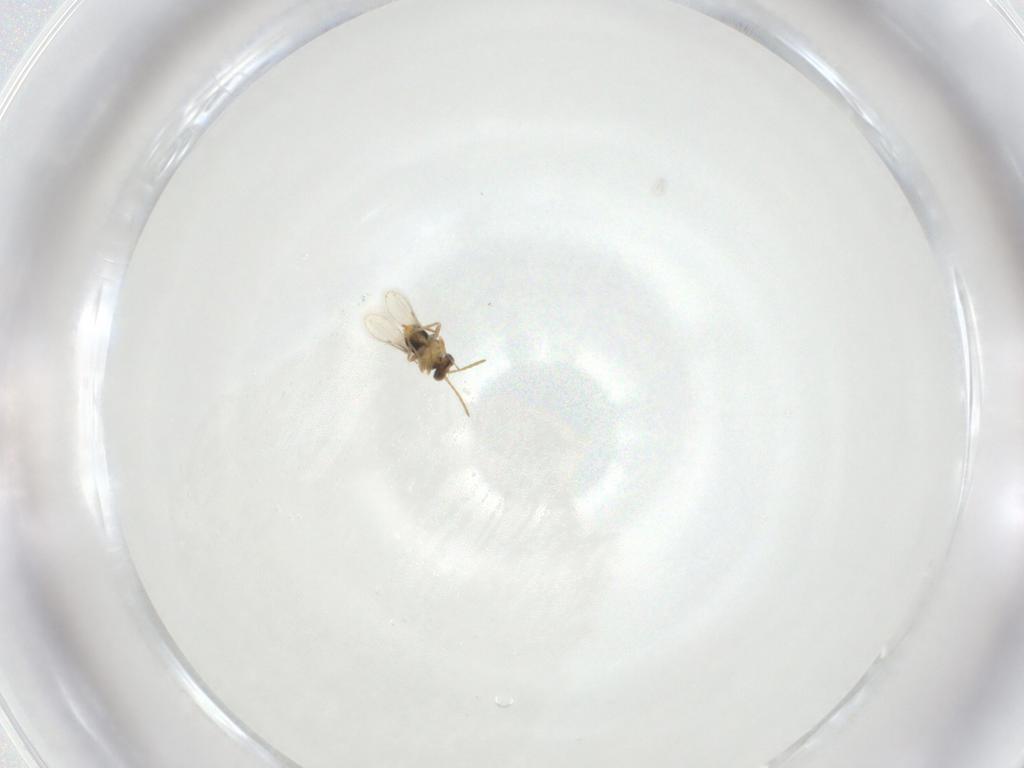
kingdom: Animalia
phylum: Arthropoda
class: Insecta
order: Hymenoptera
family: Aphelinidae
